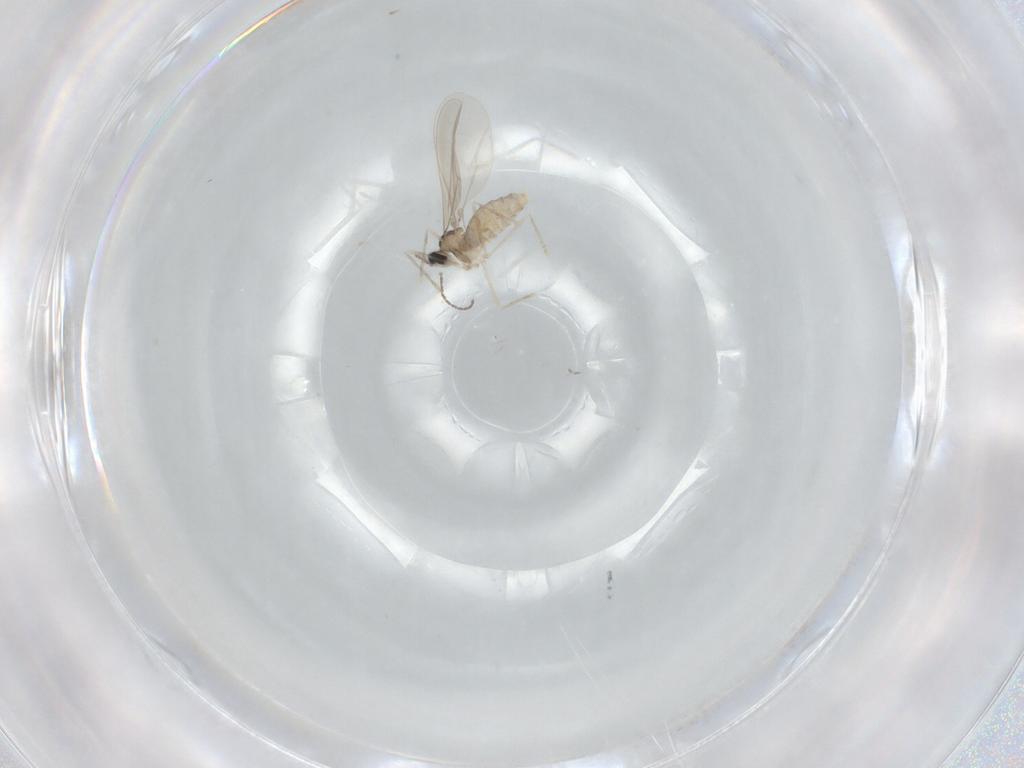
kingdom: Animalia
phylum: Arthropoda
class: Insecta
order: Diptera
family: Cecidomyiidae
